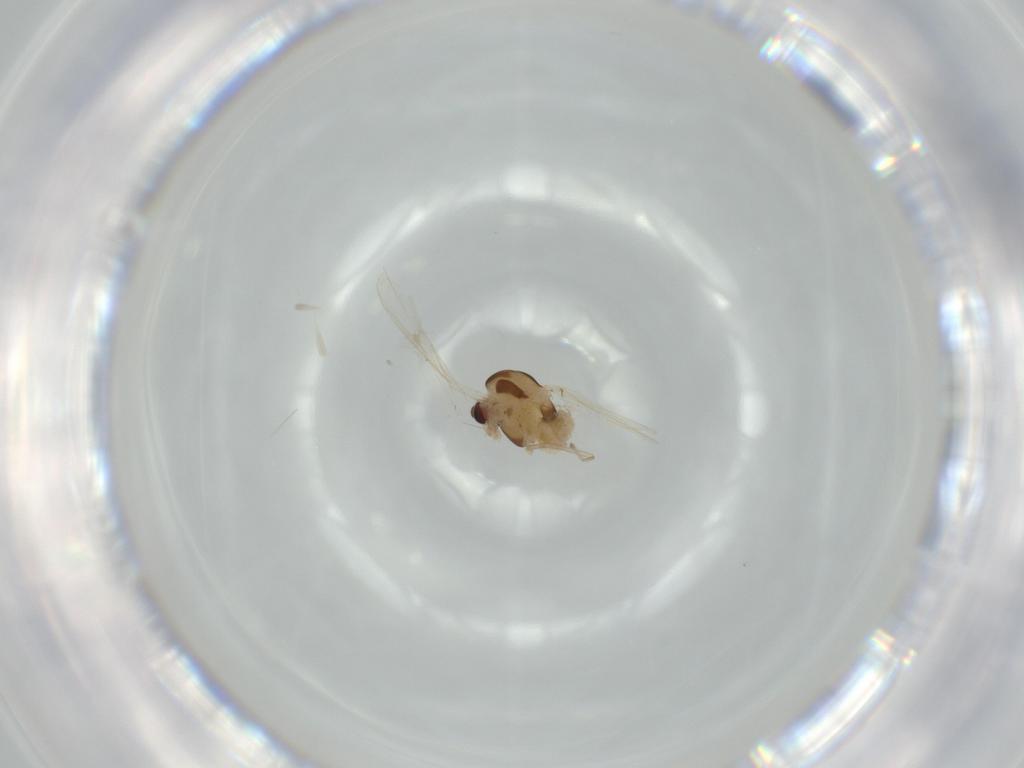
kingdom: Animalia
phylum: Arthropoda
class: Insecta
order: Diptera
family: Chironomidae
